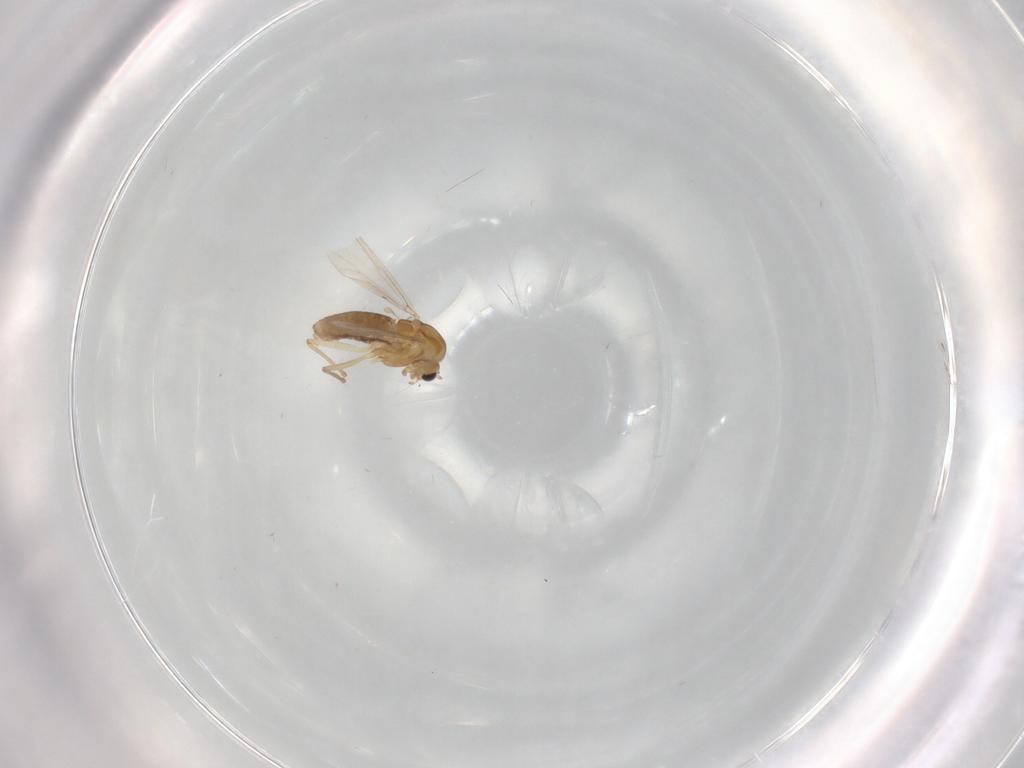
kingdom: Animalia
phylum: Arthropoda
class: Insecta
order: Diptera
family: Chironomidae
